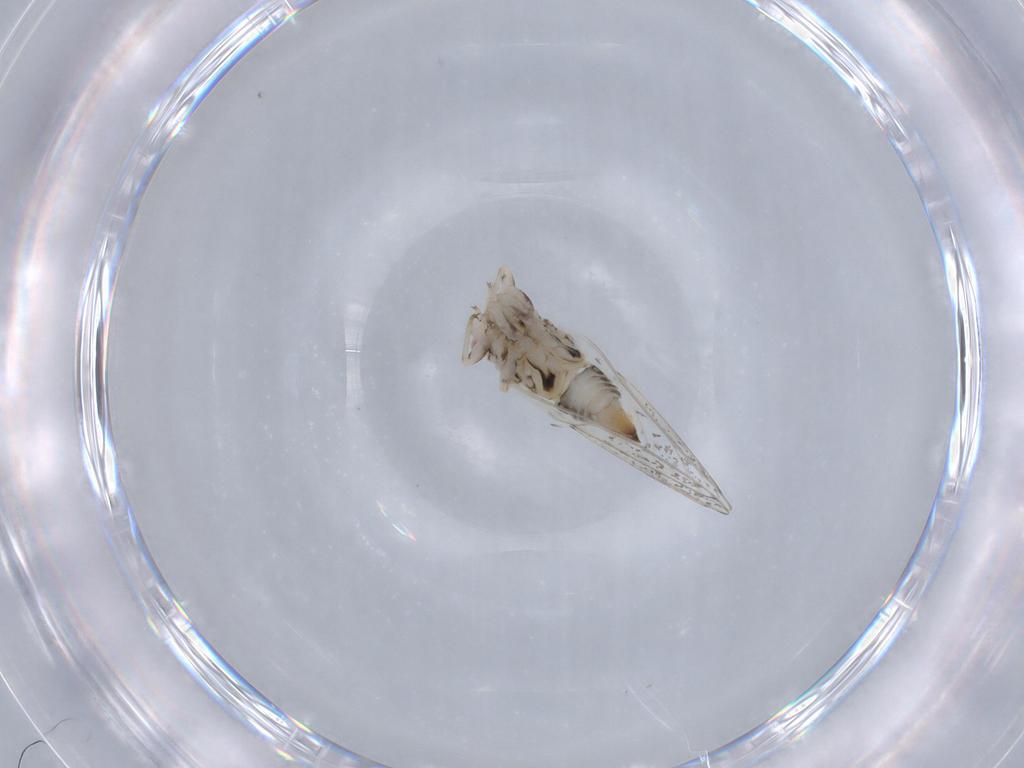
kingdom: Animalia
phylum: Arthropoda
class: Insecta
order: Hemiptera
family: Psyllidae
